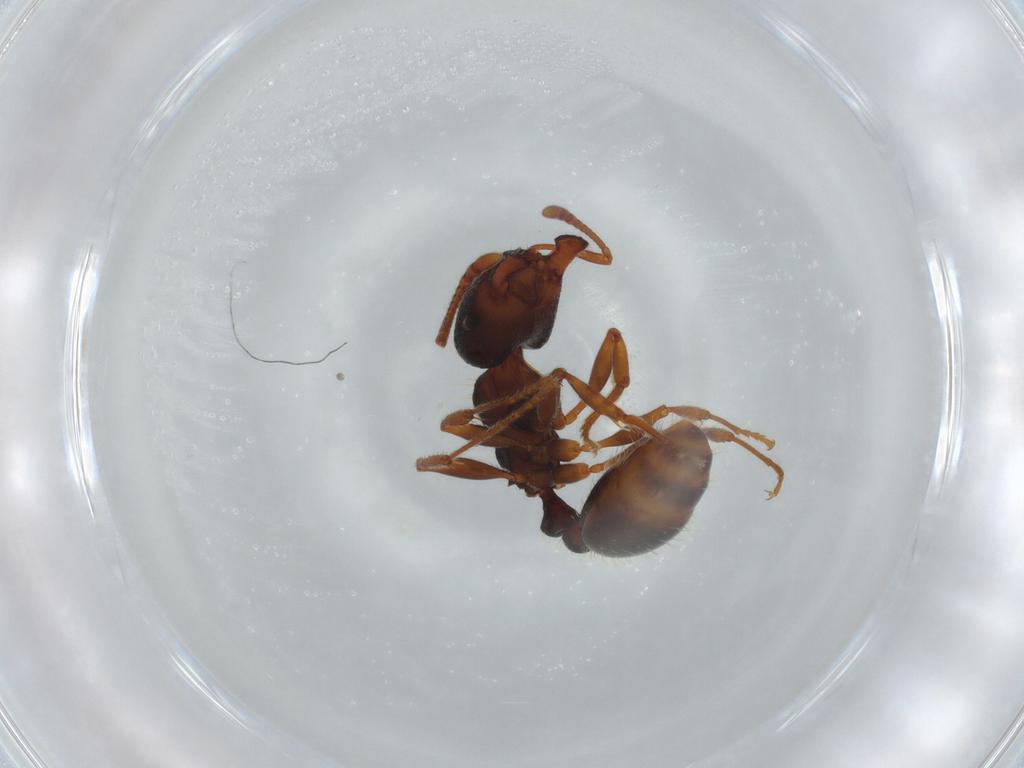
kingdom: Animalia
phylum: Arthropoda
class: Insecta
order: Hymenoptera
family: Formicidae
